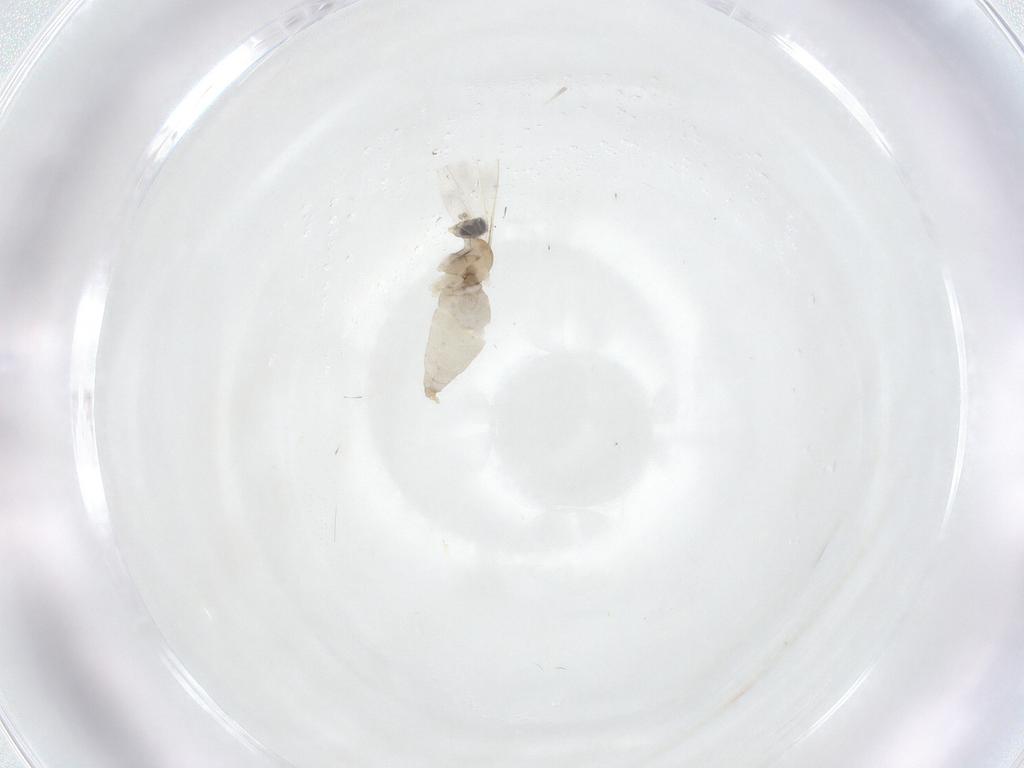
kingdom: Animalia
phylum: Arthropoda
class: Insecta
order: Diptera
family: Cecidomyiidae
